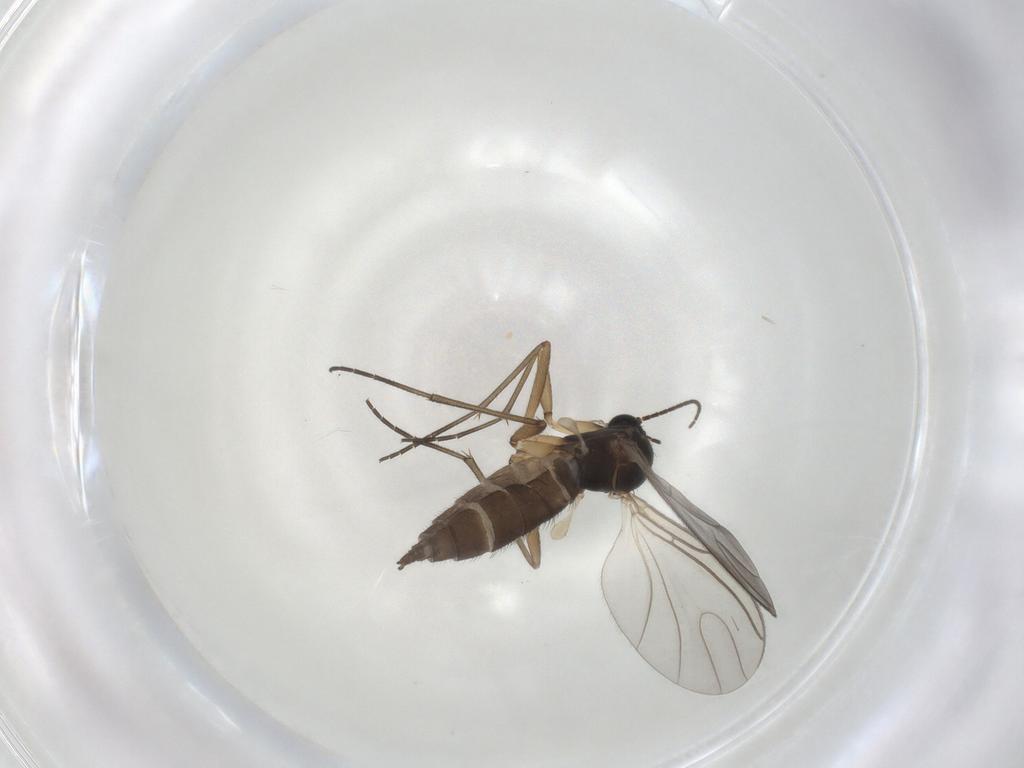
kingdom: Animalia
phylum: Arthropoda
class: Insecta
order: Diptera
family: Sciaridae
